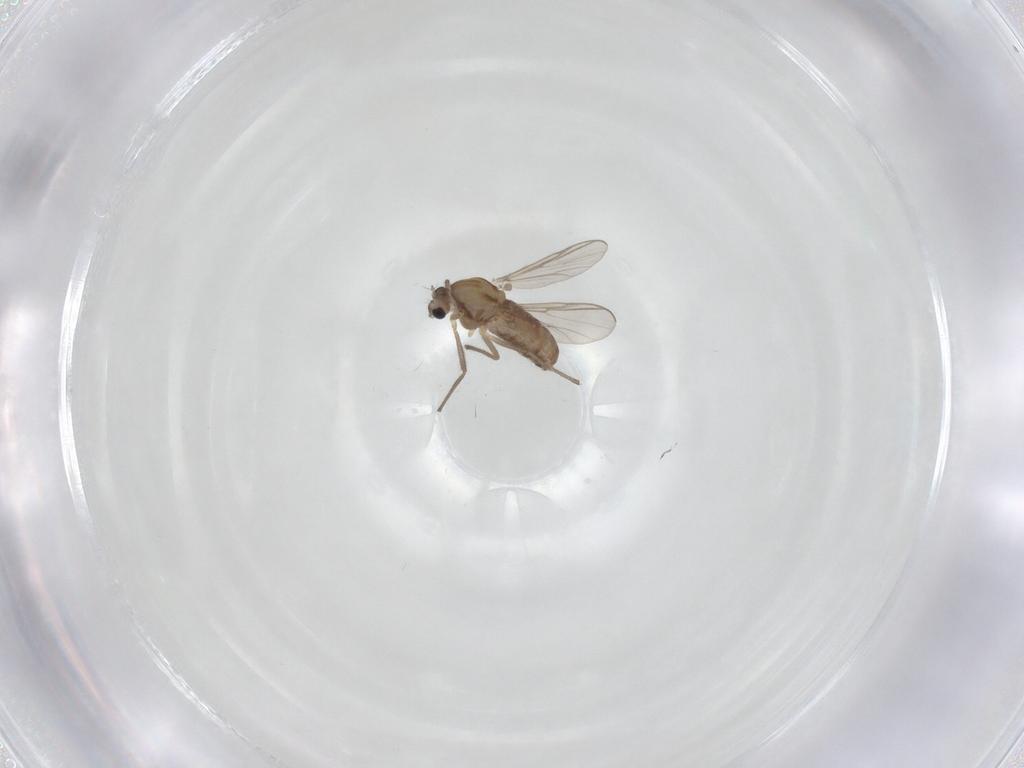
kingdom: Animalia
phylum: Arthropoda
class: Insecta
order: Diptera
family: Chironomidae
